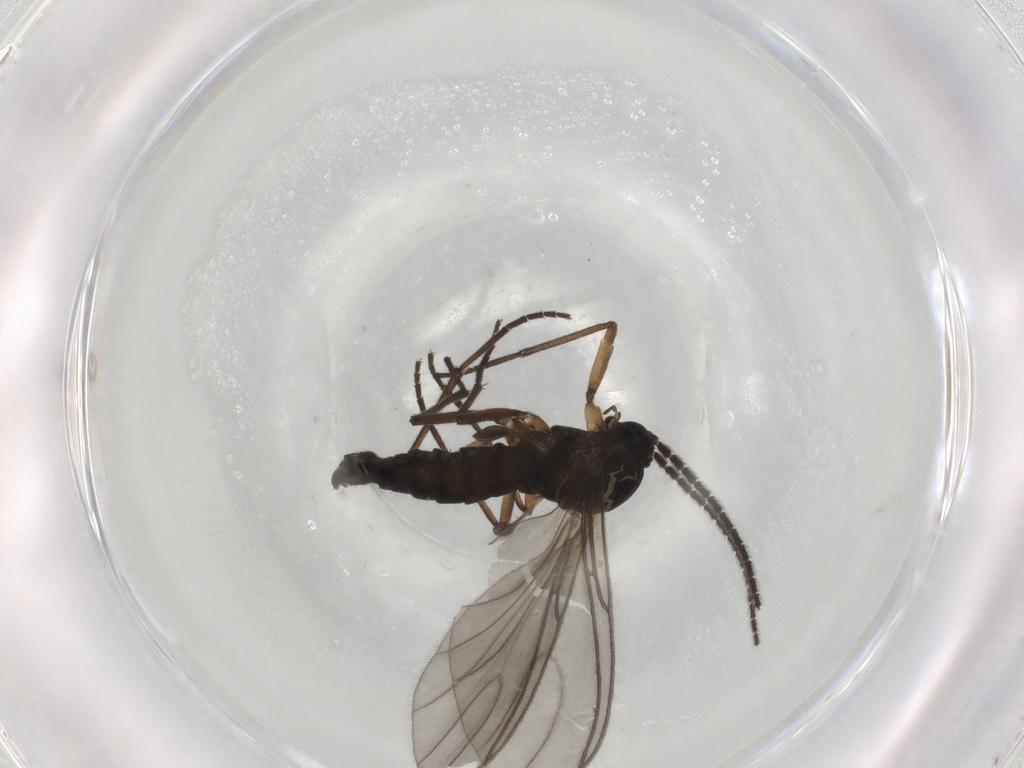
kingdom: Animalia
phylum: Arthropoda
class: Insecta
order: Diptera
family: Sciaridae
